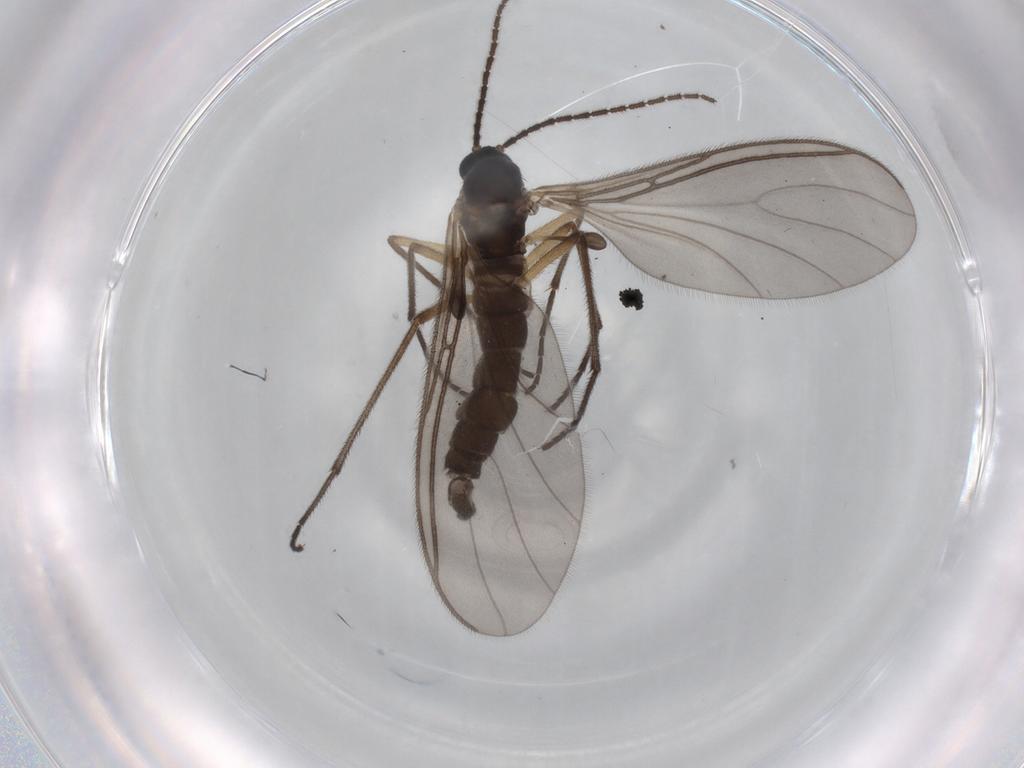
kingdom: Animalia
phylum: Arthropoda
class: Insecta
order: Diptera
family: Sciaridae
